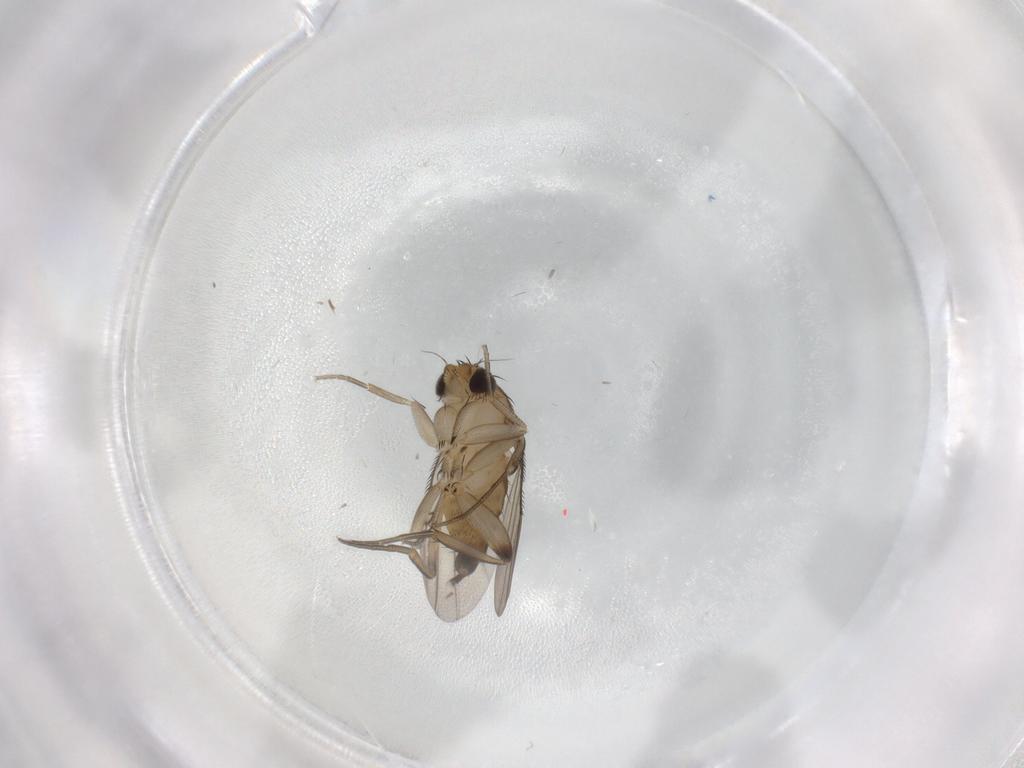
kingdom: Animalia
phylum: Arthropoda
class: Insecta
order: Diptera
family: Phoridae
